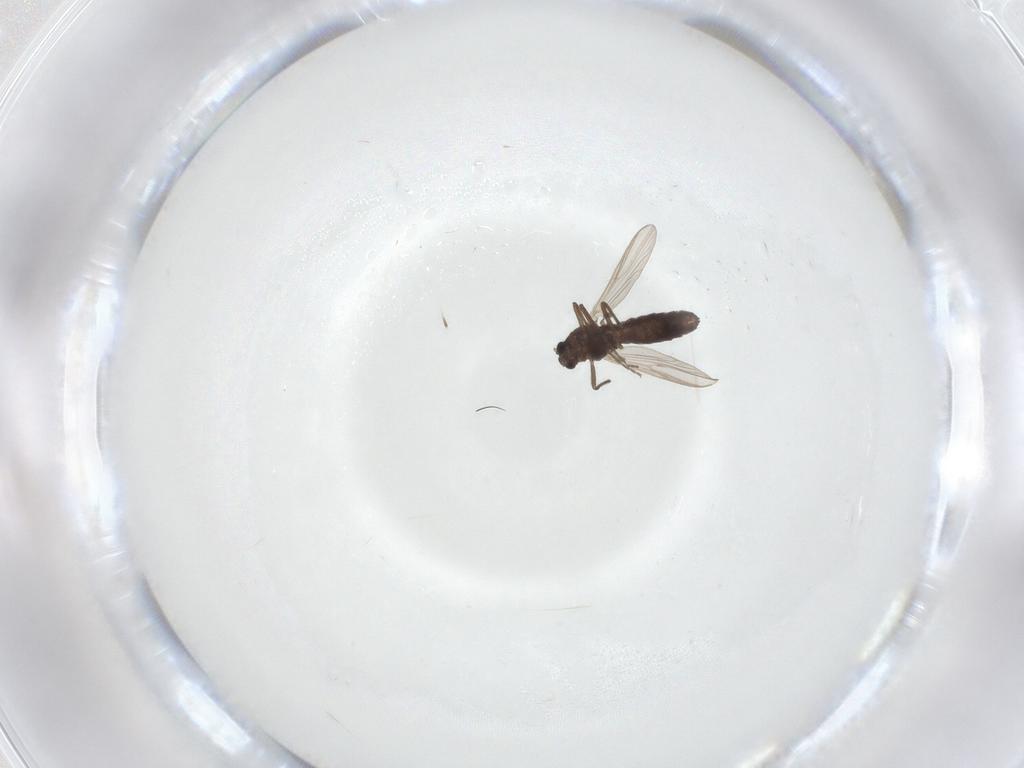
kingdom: Animalia
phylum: Arthropoda
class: Insecta
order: Diptera
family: Chironomidae
